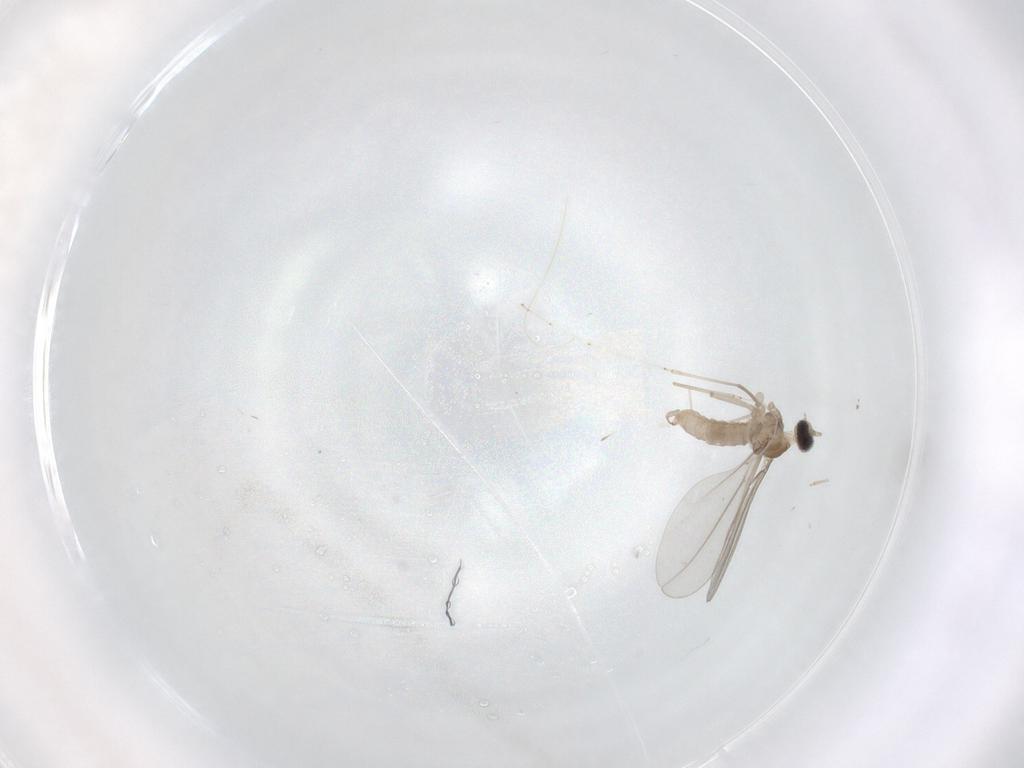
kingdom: Animalia
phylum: Arthropoda
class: Insecta
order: Diptera
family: Cecidomyiidae
